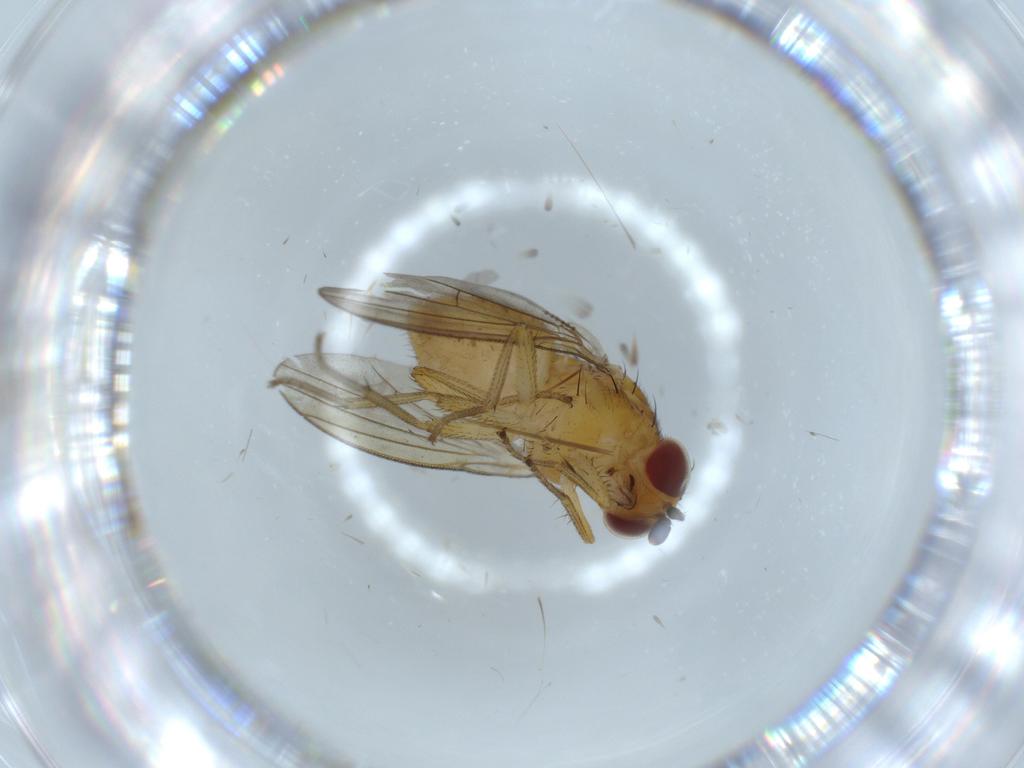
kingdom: Animalia
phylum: Arthropoda
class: Insecta
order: Diptera
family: Lauxaniidae
